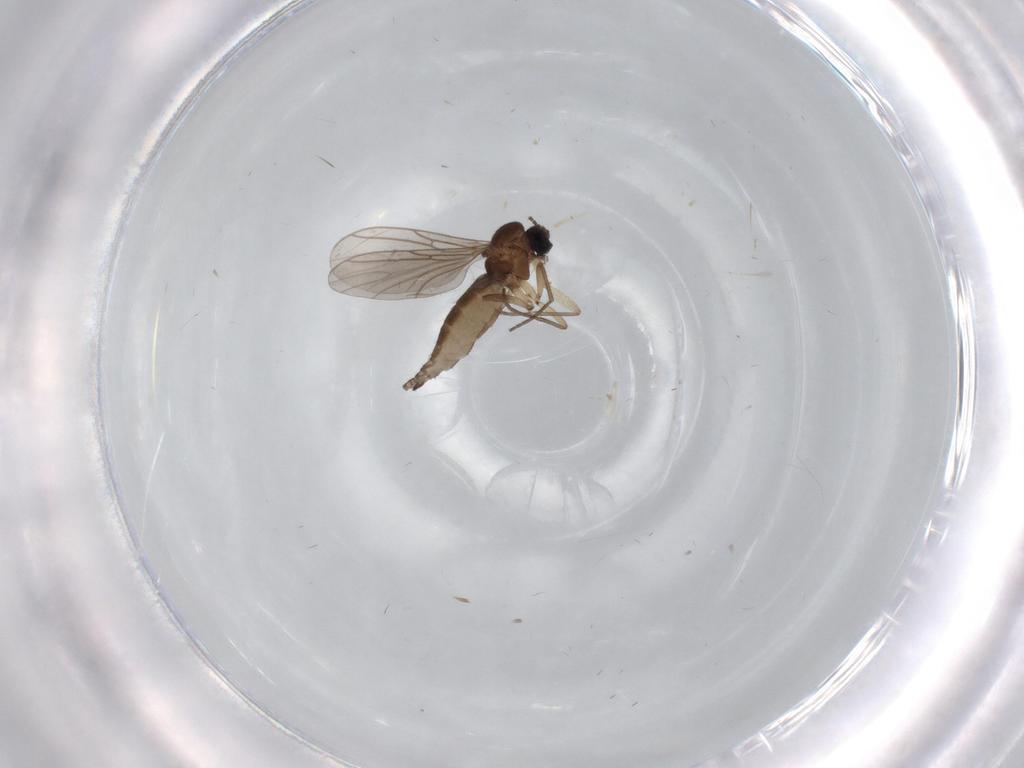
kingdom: Animalia
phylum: Arthropoda
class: Insecta
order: Diptera
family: Sciaridae
